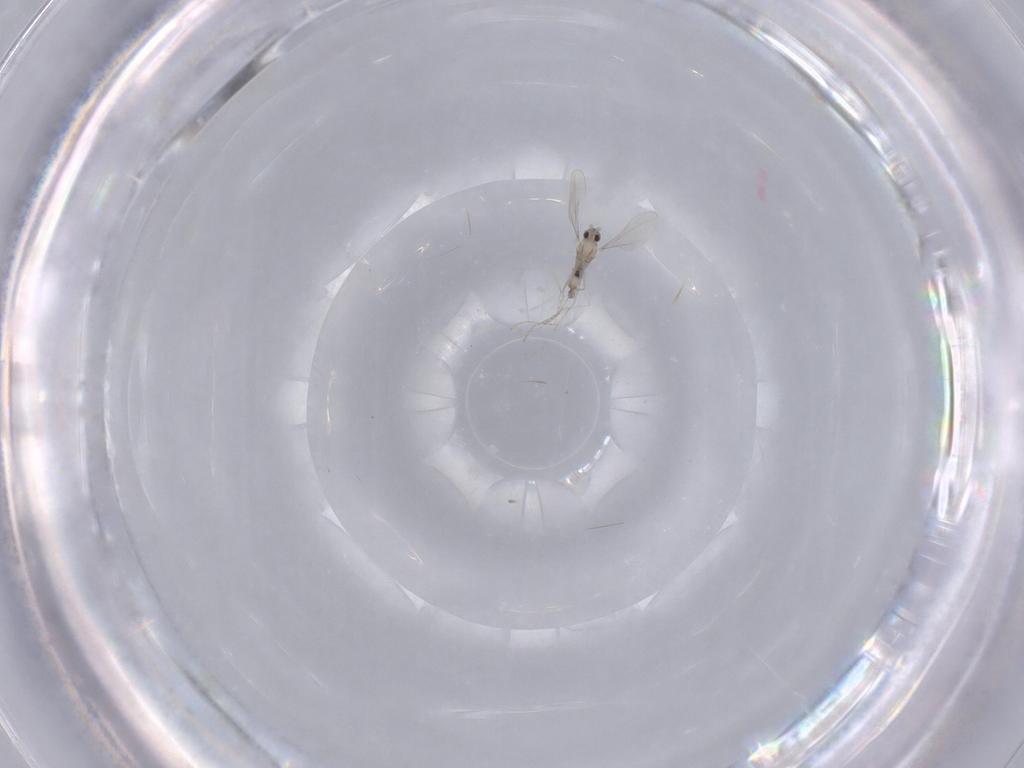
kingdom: Animalia
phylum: Arthropoda
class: Insecta
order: Diptera
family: Cecidomyiidae
